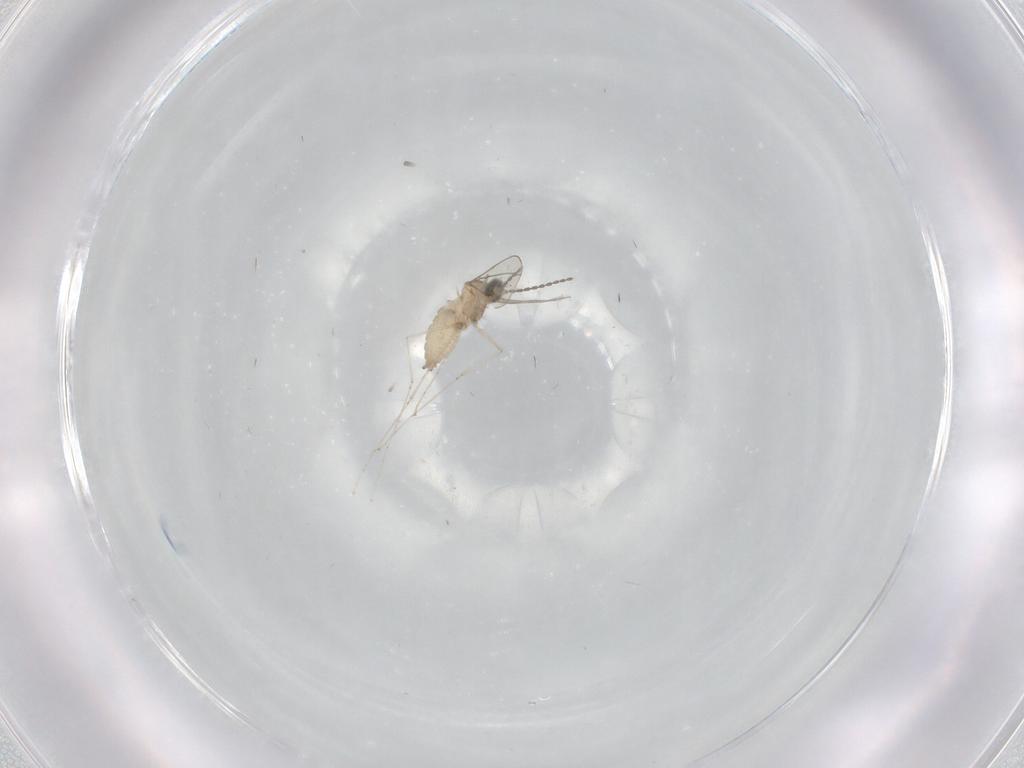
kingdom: Animalia
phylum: Arthropoda
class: Insecta
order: Diptera
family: Cecidomyiidae
